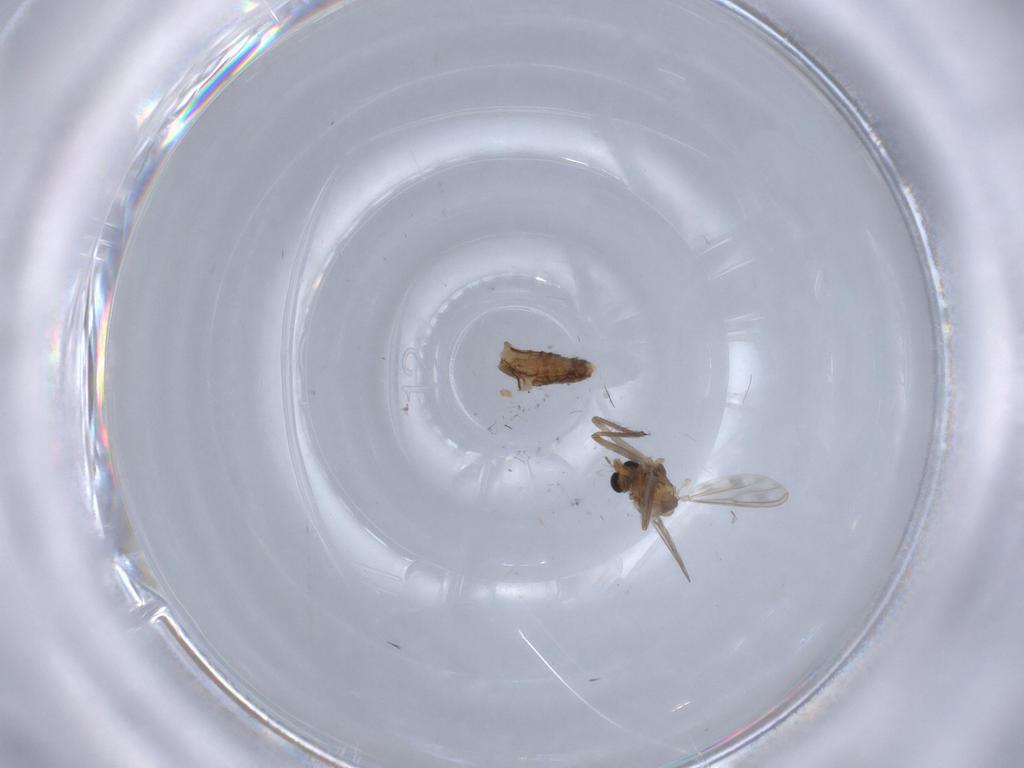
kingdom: Animalia
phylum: Arthropoda
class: Insecta
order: Diptera
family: Chironomidae
